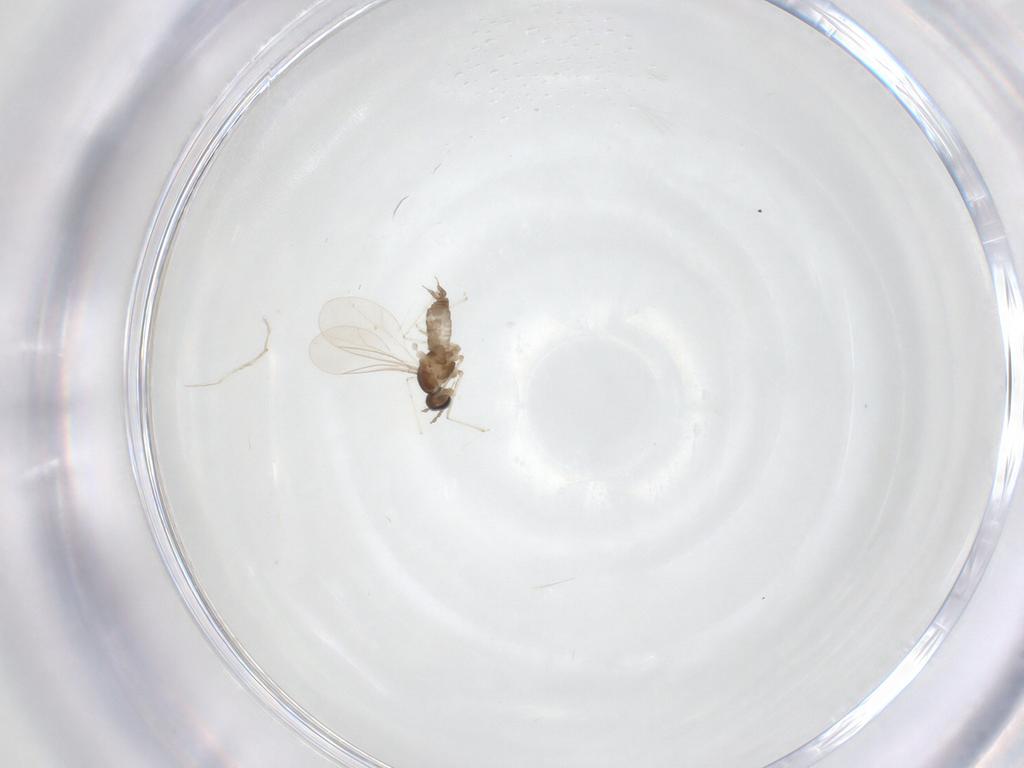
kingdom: Animalia
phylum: Arthropoda
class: Insecta
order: Diptera
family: Cecidomyiidae
